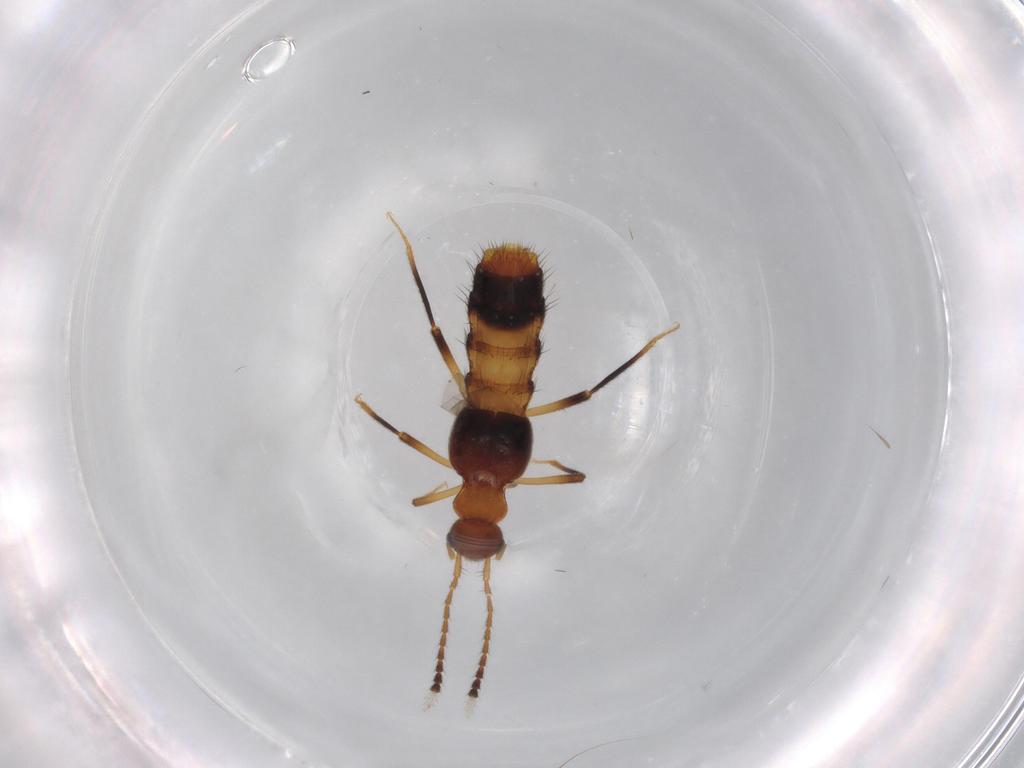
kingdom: Animalia
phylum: Arthropoda
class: Insecta
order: Coleoptera
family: Staphylinidae
